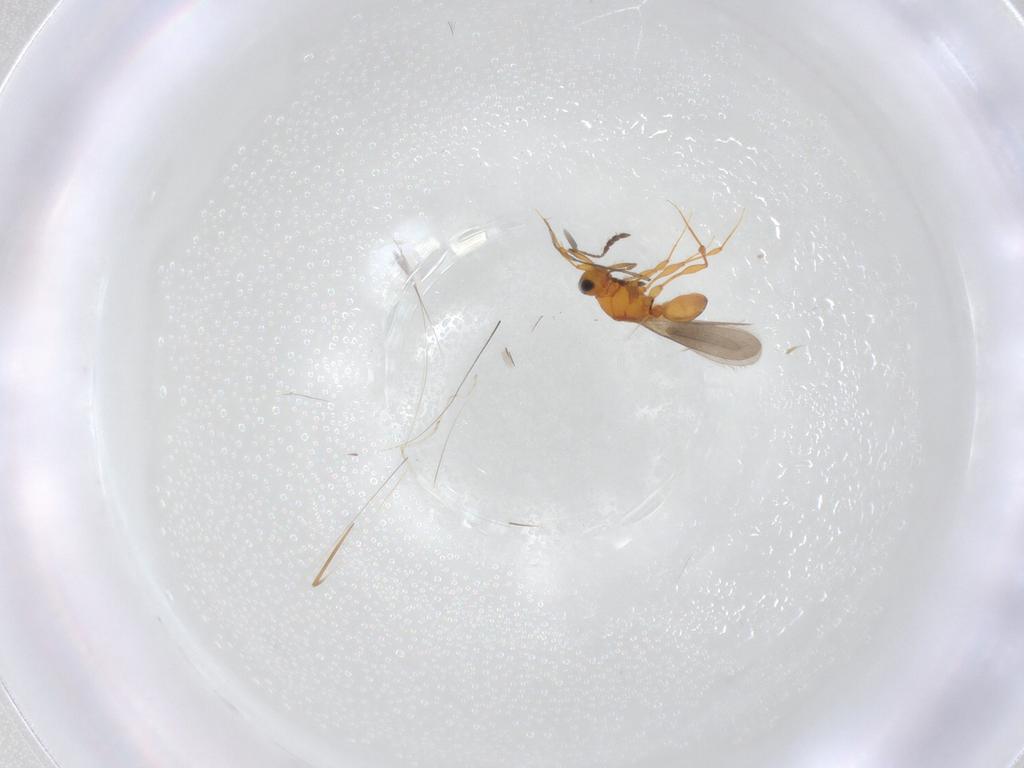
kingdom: Animalia
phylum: Arthropoda
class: Insecta
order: Hymenoptera
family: Platygastridae
